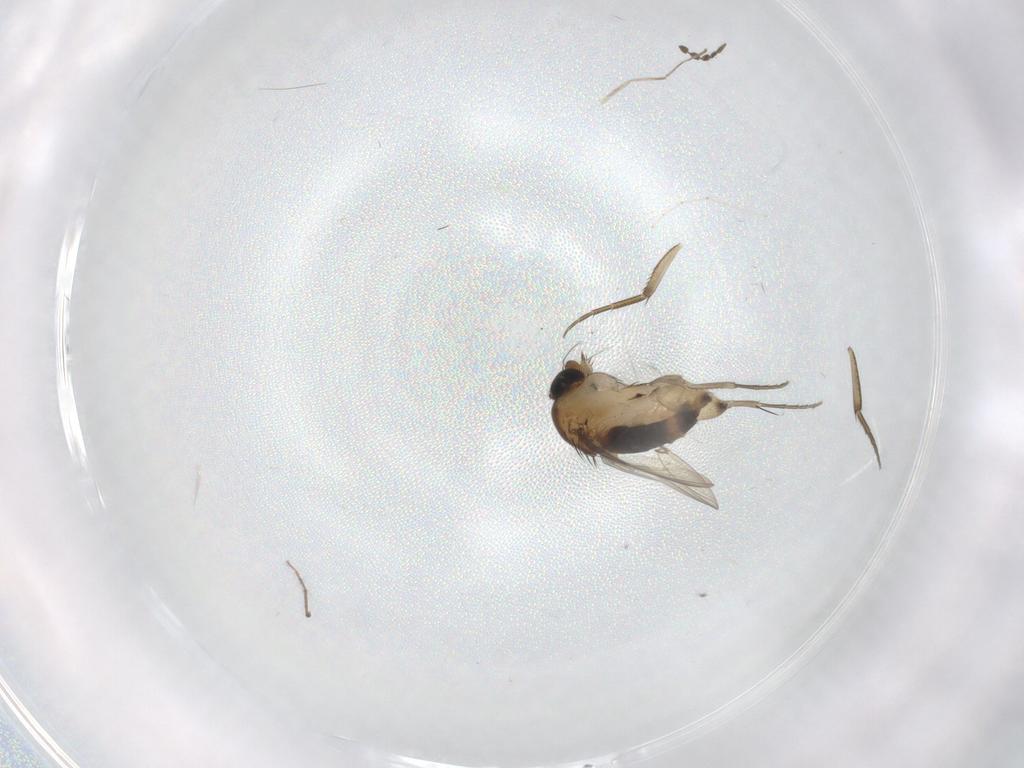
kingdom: Animalia
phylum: Arthropoda
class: Insecta
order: Diptera
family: Phoridae
